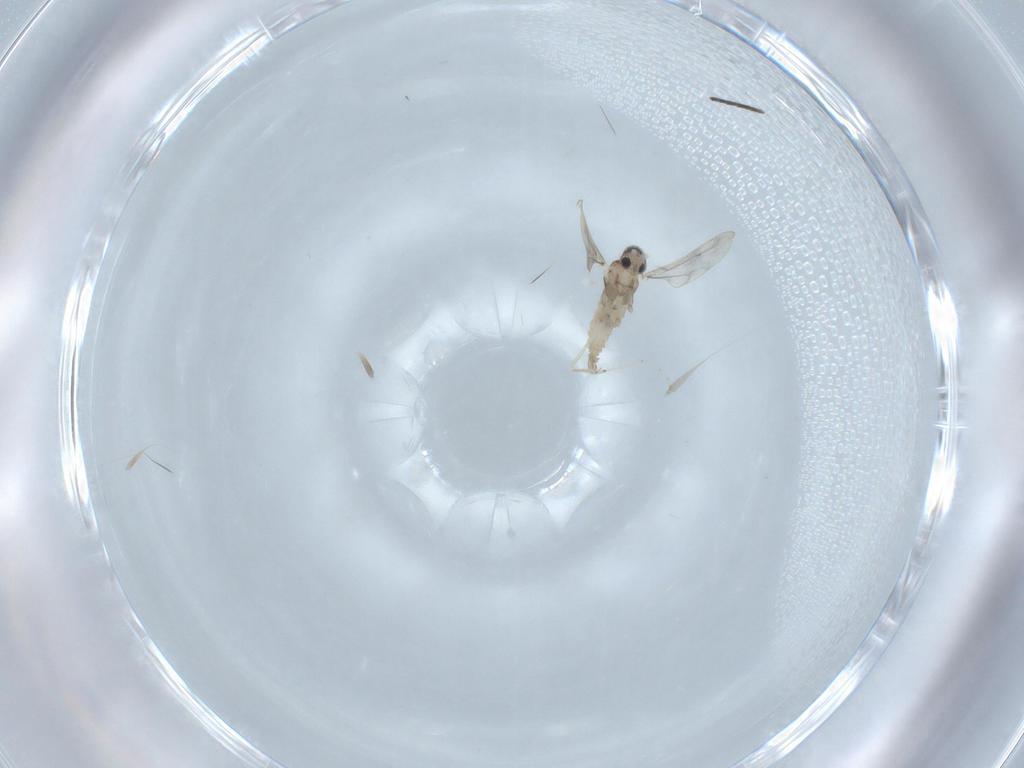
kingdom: Animalia
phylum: Arthropoda
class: Insecta
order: Diptera
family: Cecidomyiidae
